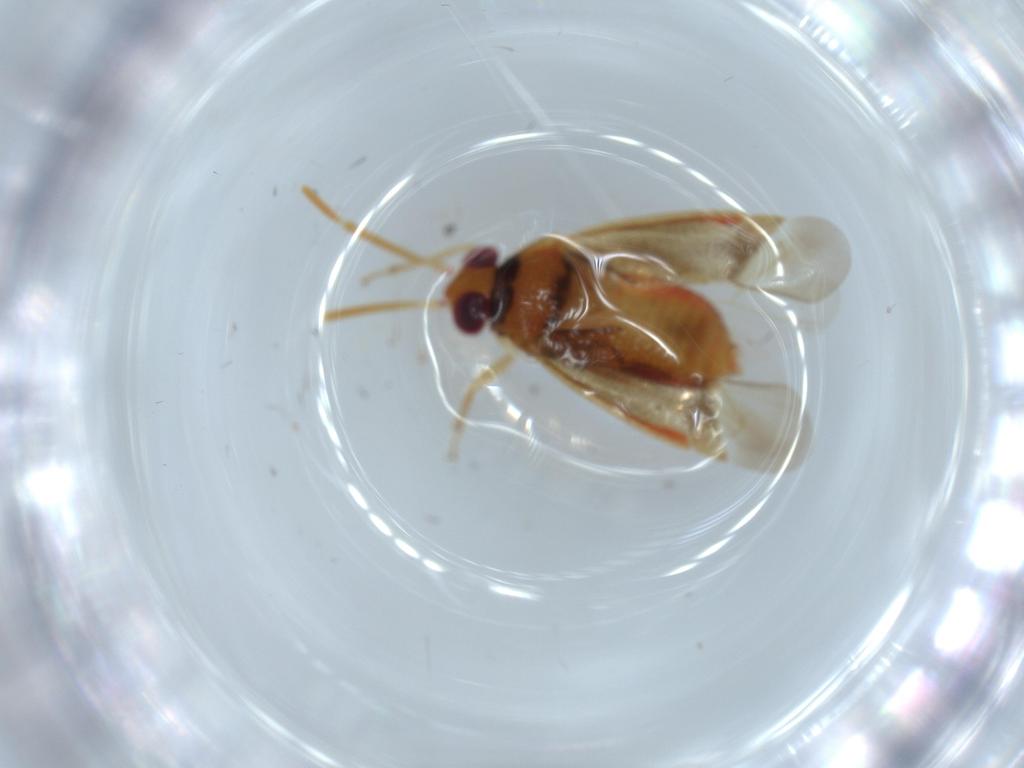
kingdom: Animalia
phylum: Arthropoda
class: Insecta
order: Hemiptera
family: Miridae
